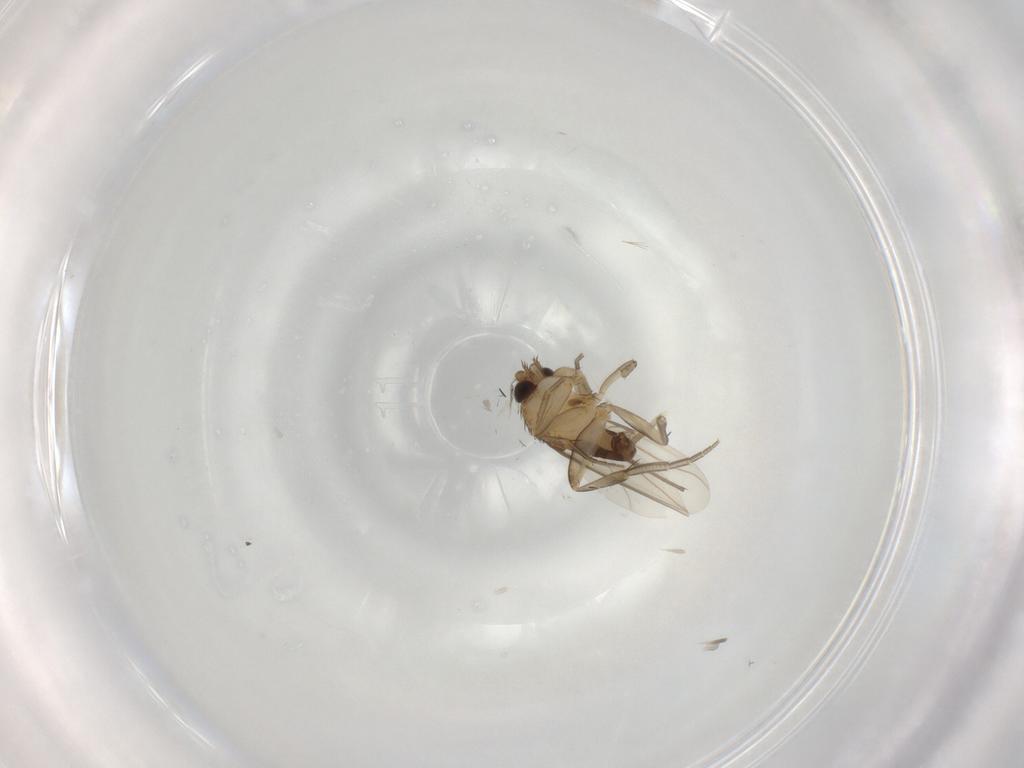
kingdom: Animalia
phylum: Arthropoda
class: Insecta
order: Diptera
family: Phoridae
